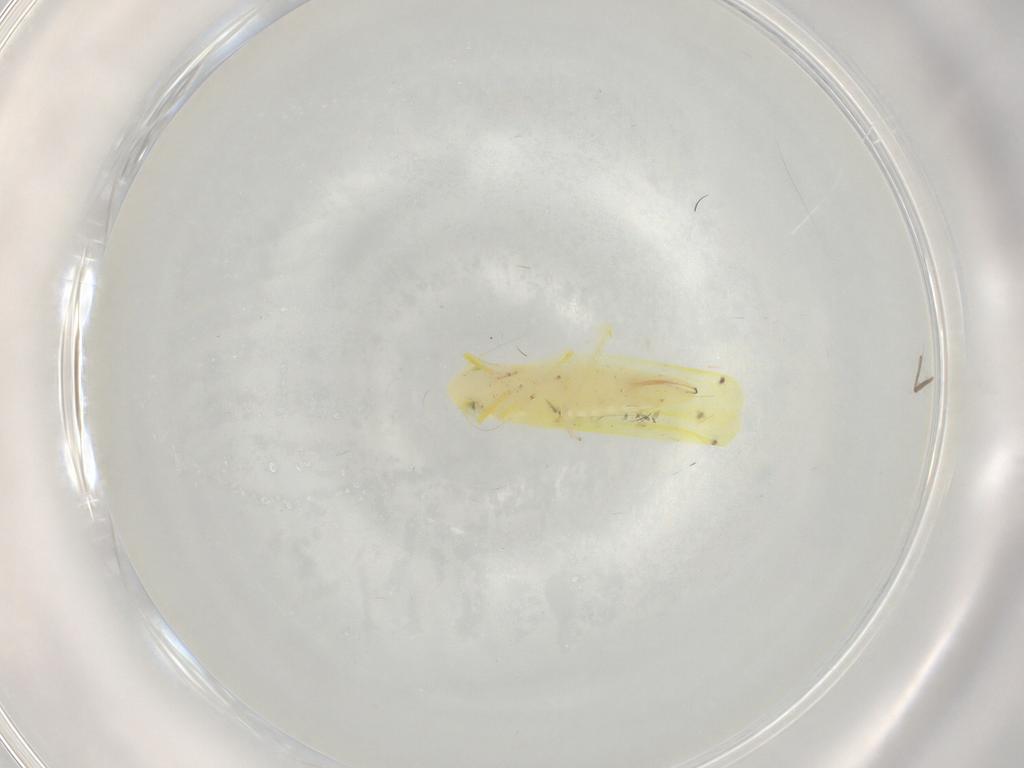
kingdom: Animalia
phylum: Arthropoda
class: Insecta
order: Hemiptera
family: Cicadellidae
